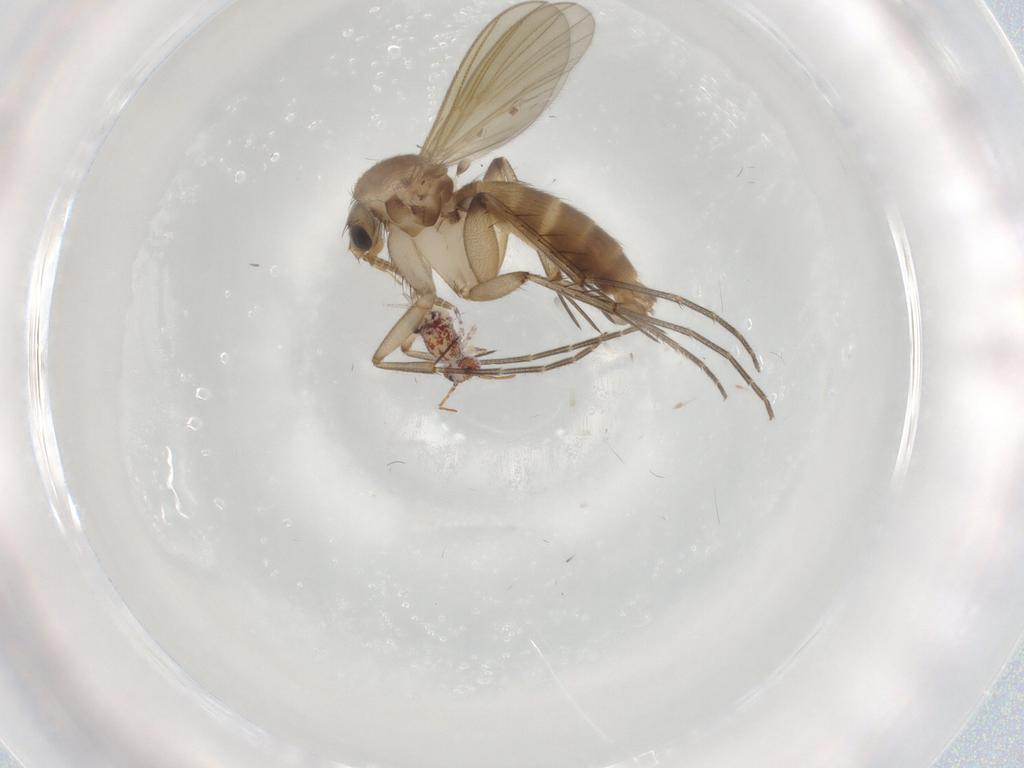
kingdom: Animalia
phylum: Arthropoda
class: Insecta
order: Diptera
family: Mycetophilidae
